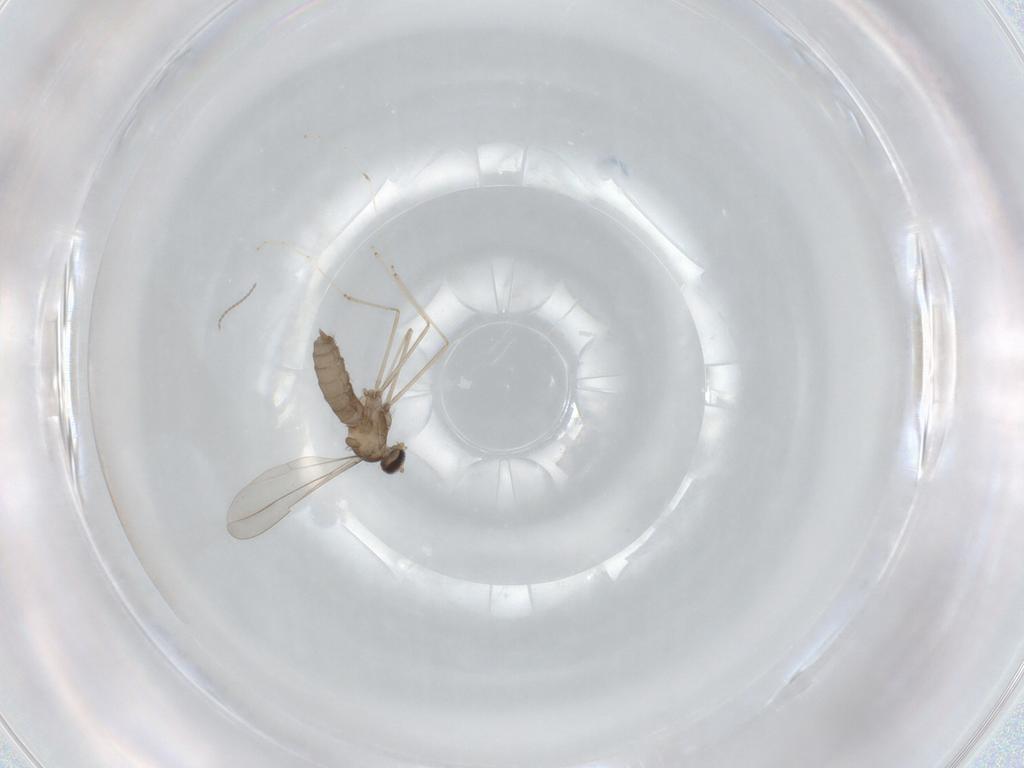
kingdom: Animalia
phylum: Arthropoda
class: Insecta
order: Diptera
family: Cecidomyiidae
